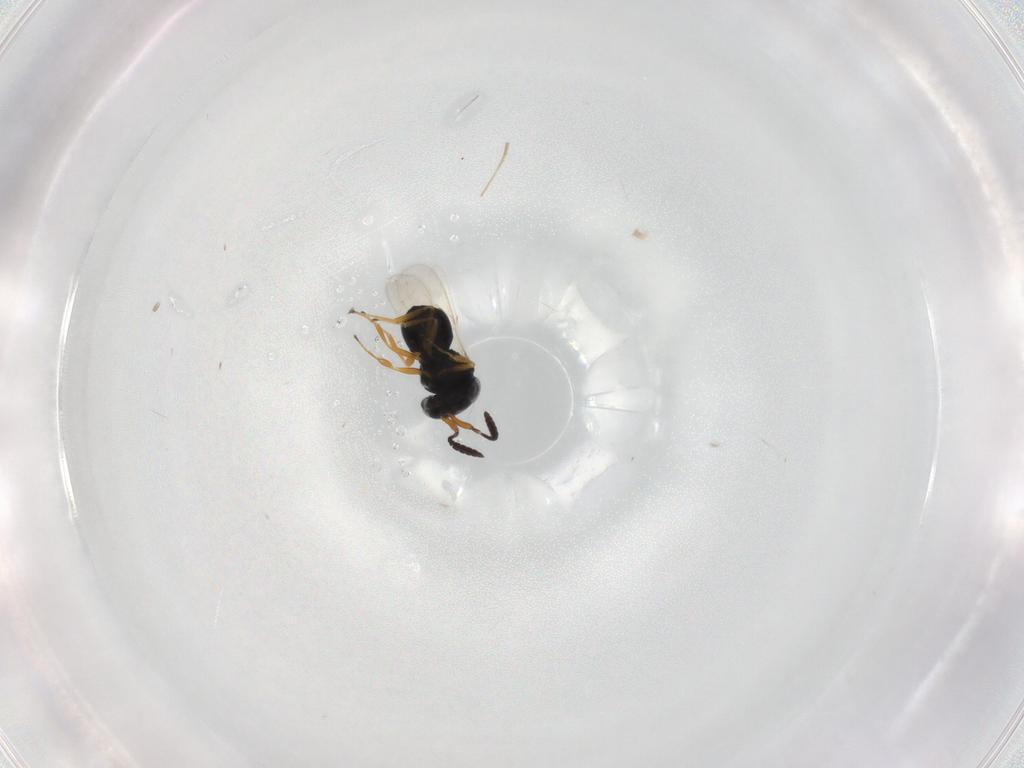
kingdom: Animalia
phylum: Arthropoda
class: Insecta
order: Hymenoptera
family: Scelionidae
